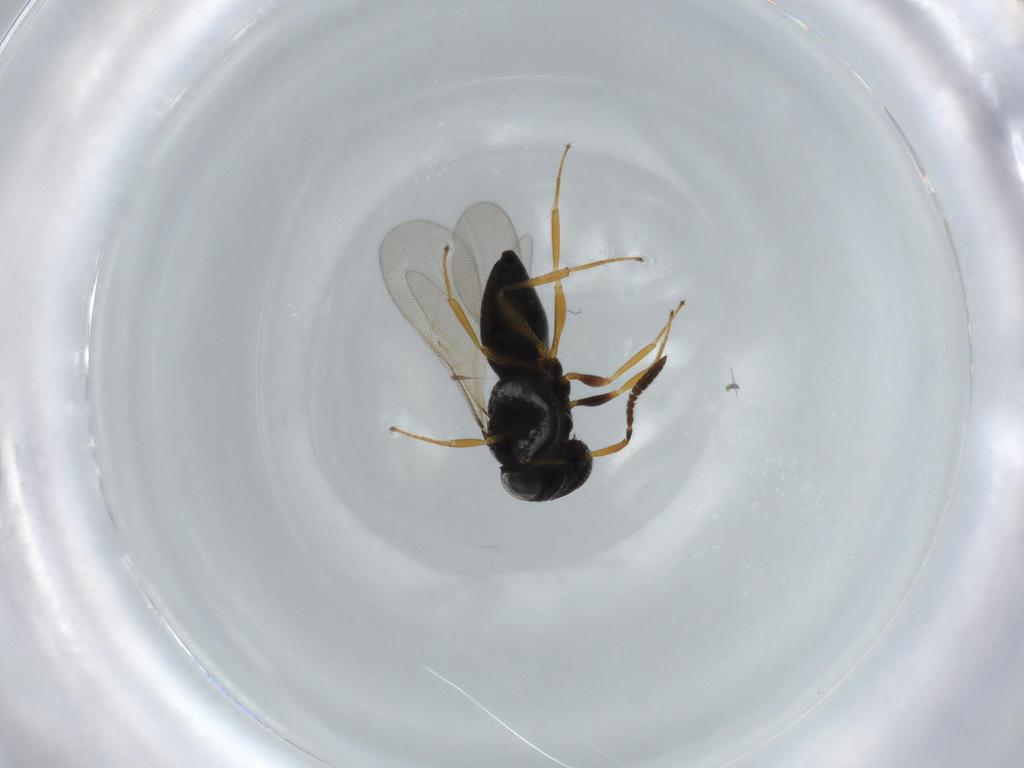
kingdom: Animalia
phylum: Arthropoda
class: Insecta
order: Hymenoptera
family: Scelionidae
